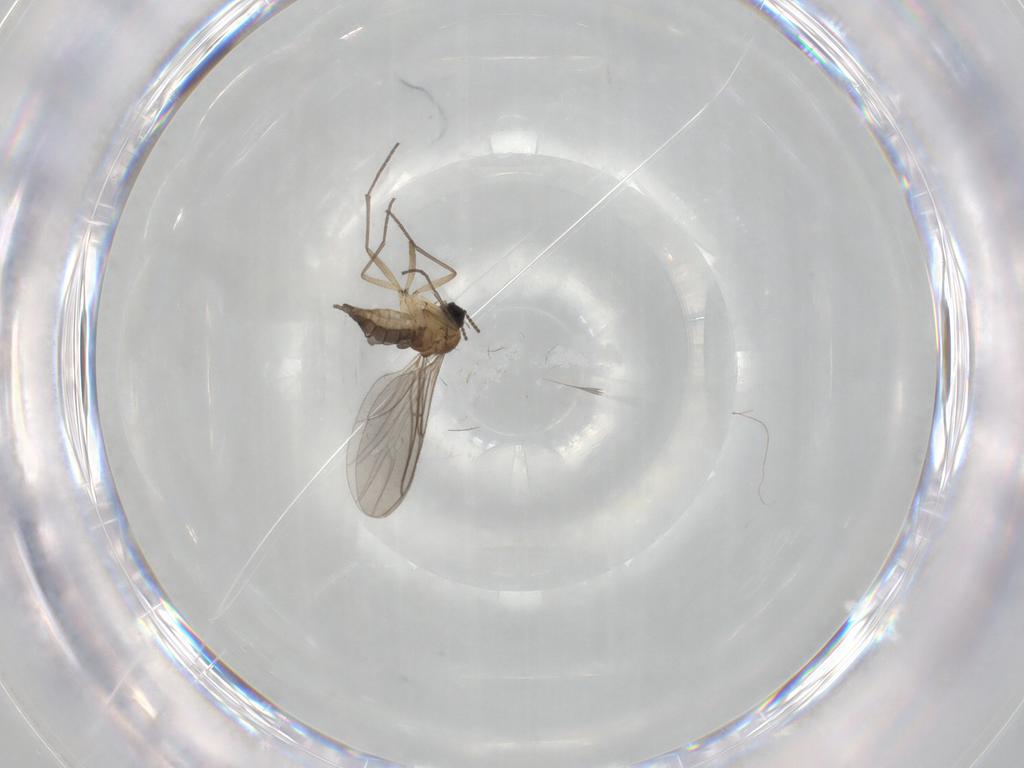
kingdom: Animalia
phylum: Arthropoda
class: Insecta
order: Diptera
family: Sciaridae
